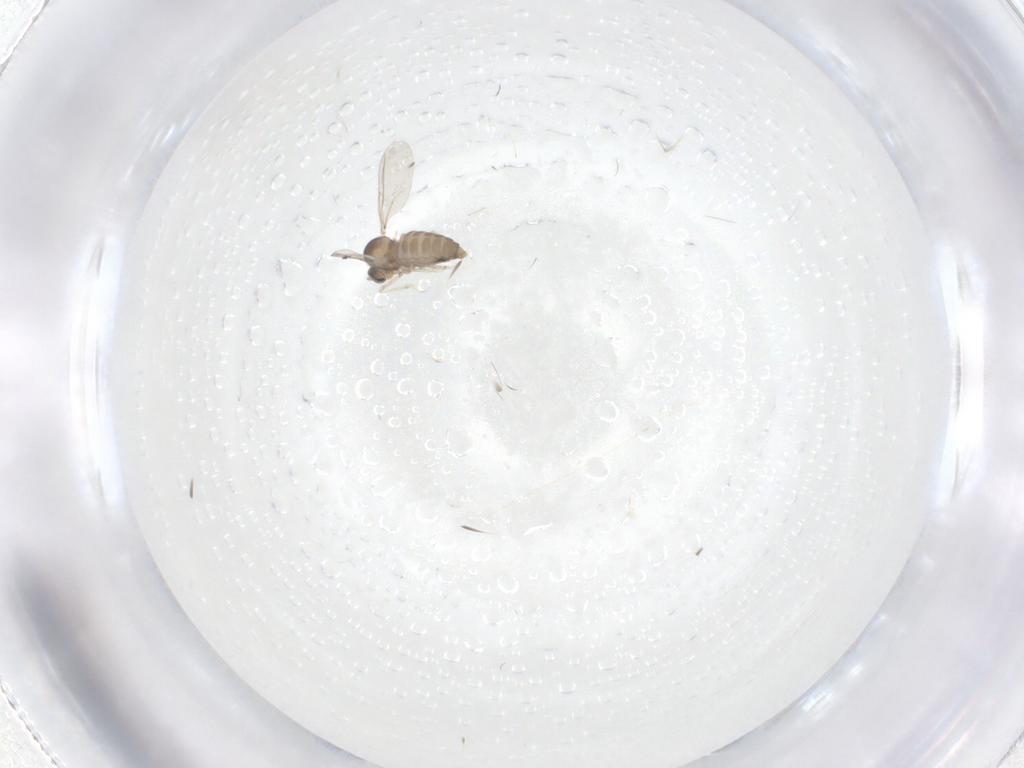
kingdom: Animalia
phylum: Arthropoda
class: Insecta
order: Diptera
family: Cecidomyiidae
